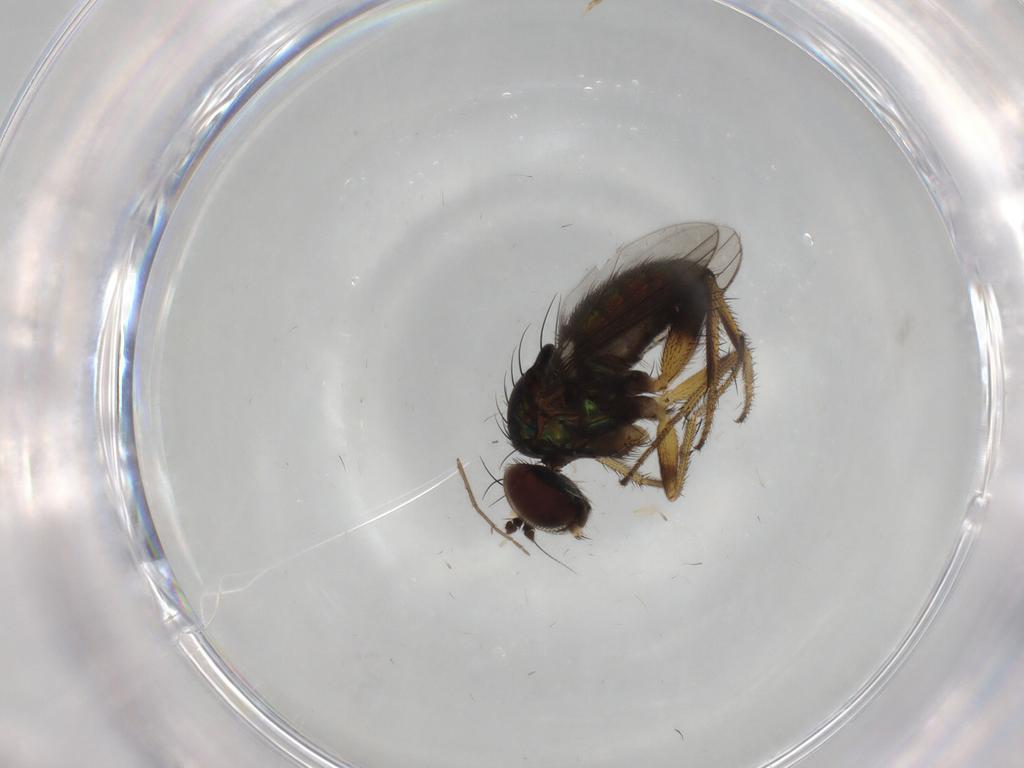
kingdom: Animalia
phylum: Arthropoda
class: Insecta
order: Diptera
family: Dolichopodidae
